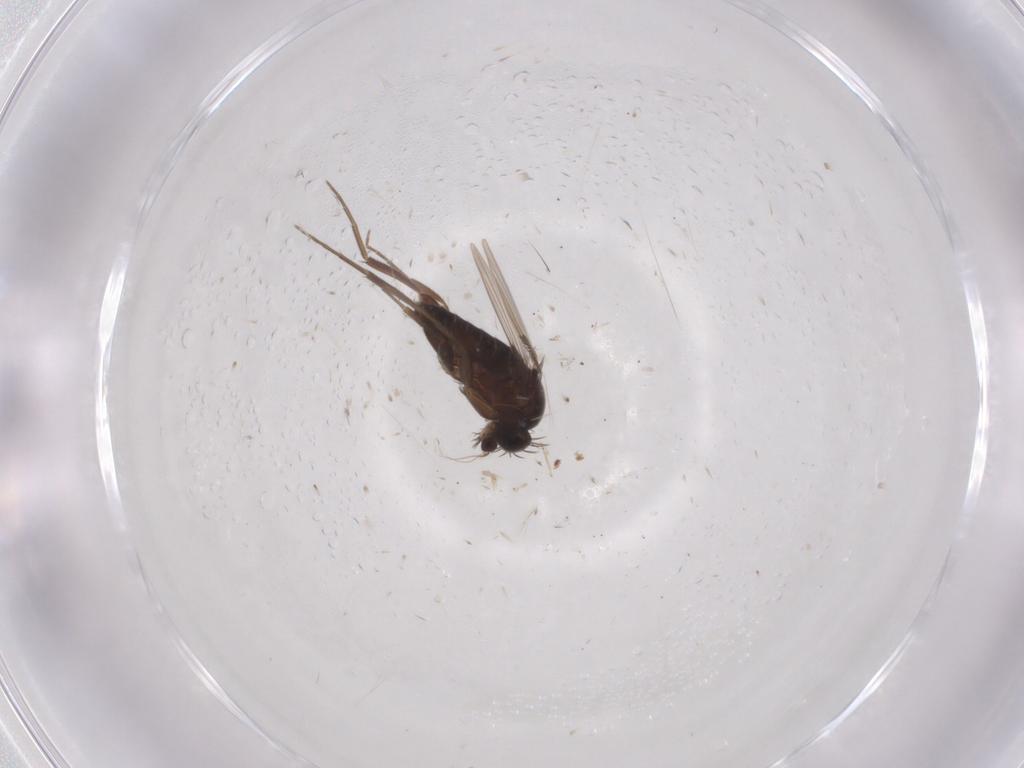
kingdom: Animalia
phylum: Arthropoda
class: Insecta
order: Diptera
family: Phoridae
